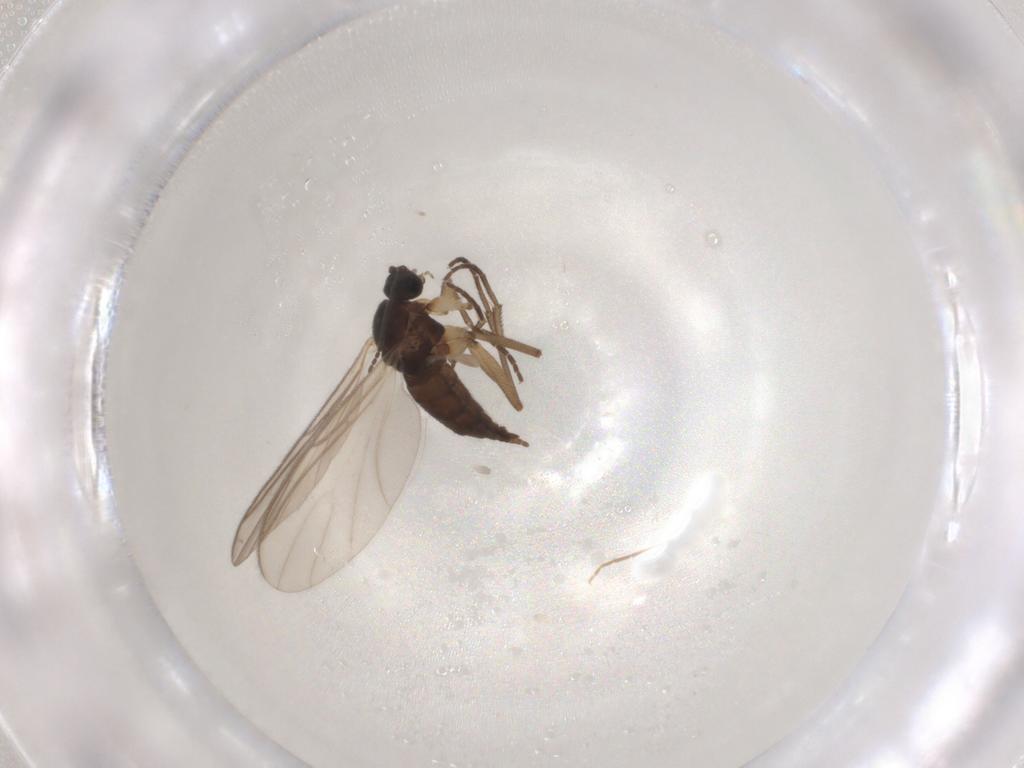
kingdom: Animalia
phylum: Arthropoda
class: Insecta
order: Diptera
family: Sciaridae
